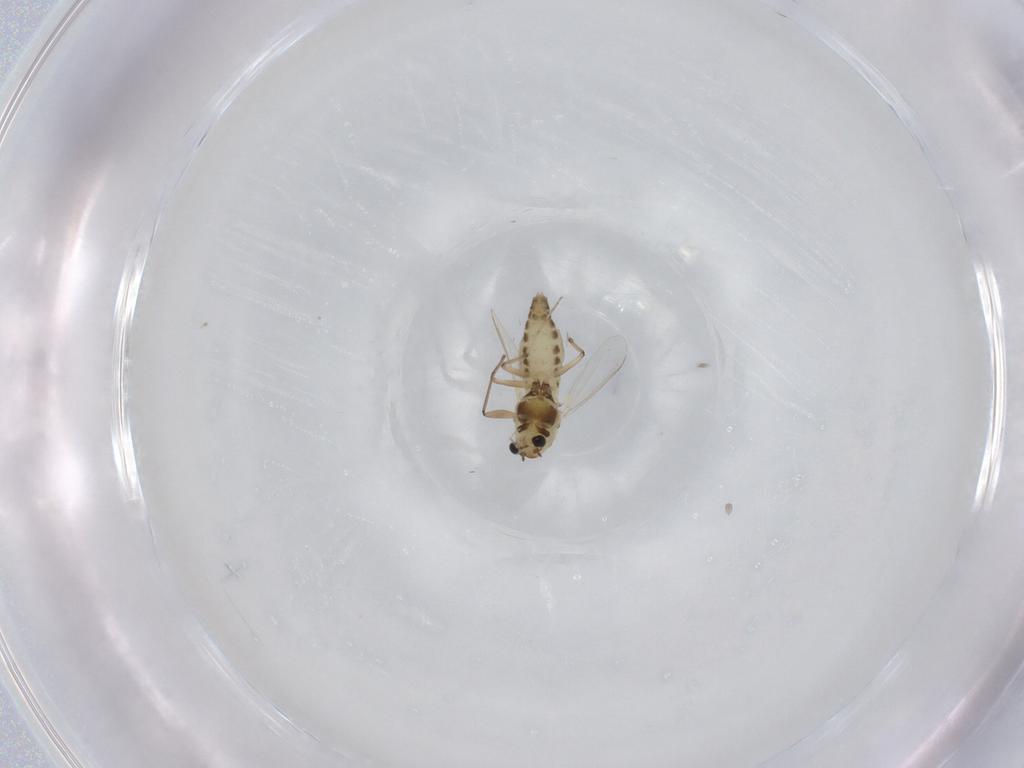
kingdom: Animalia
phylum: Arthropoda
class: Insecta
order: Diptera
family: Chironomidae
